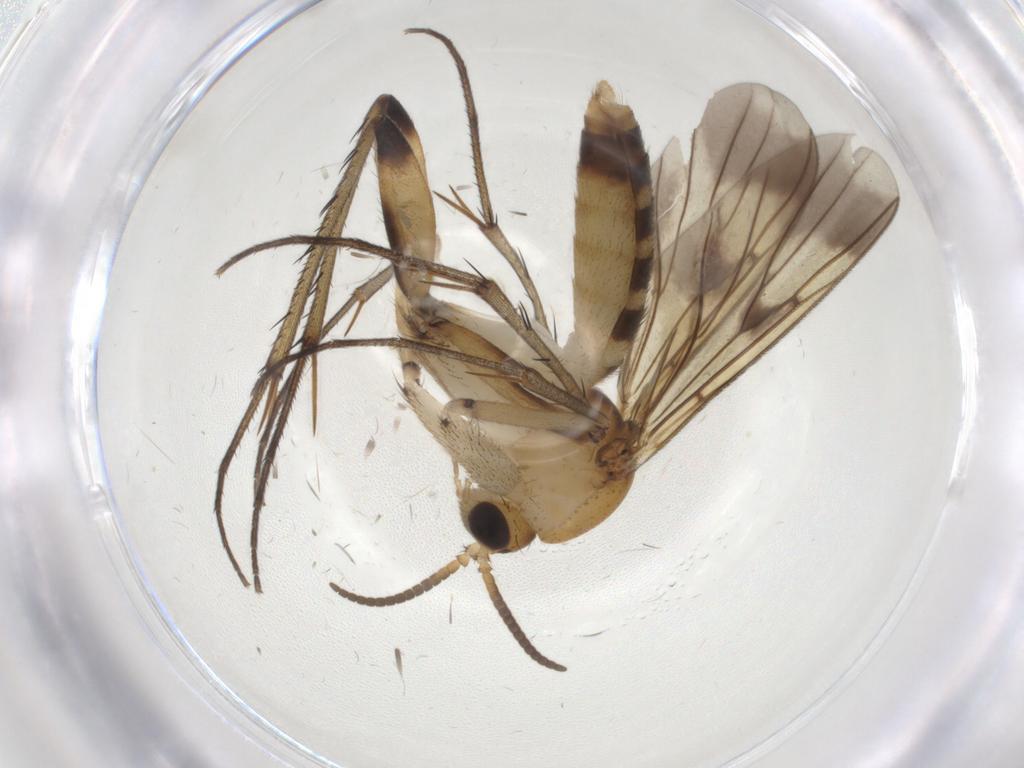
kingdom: Animalia
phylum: Arthropoda
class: Insecta
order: Diptera
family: Mycetophilidae
